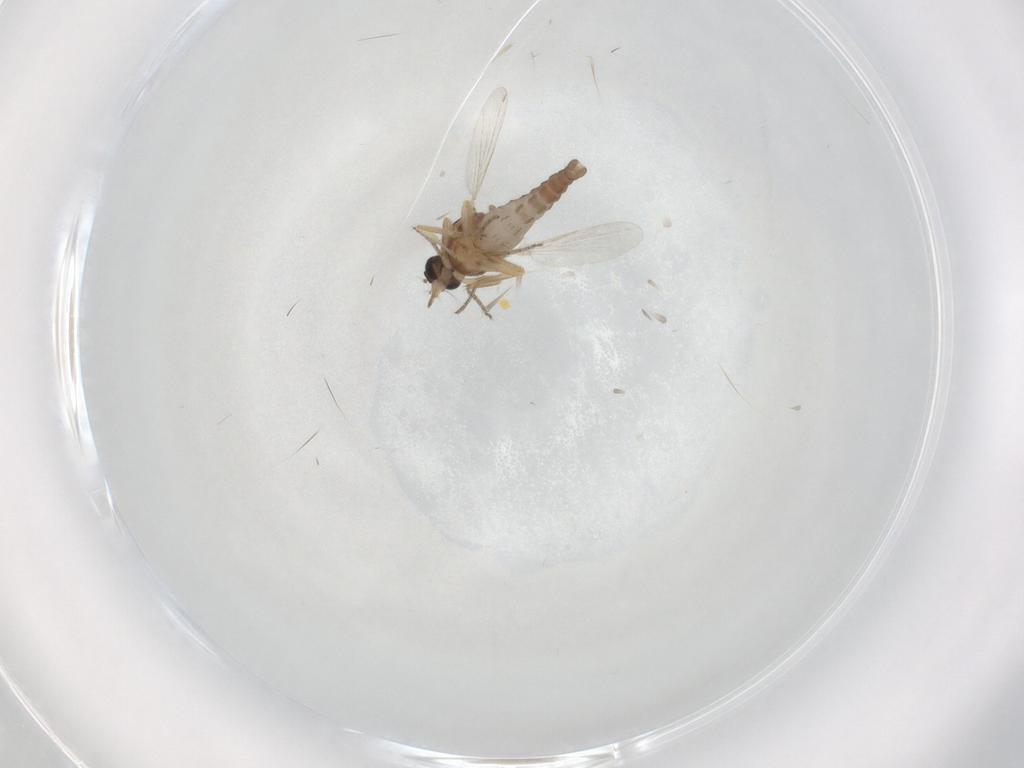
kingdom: Animalia
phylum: Arthropoda
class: Insecta
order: Diptera
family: Ceratopogonidae
